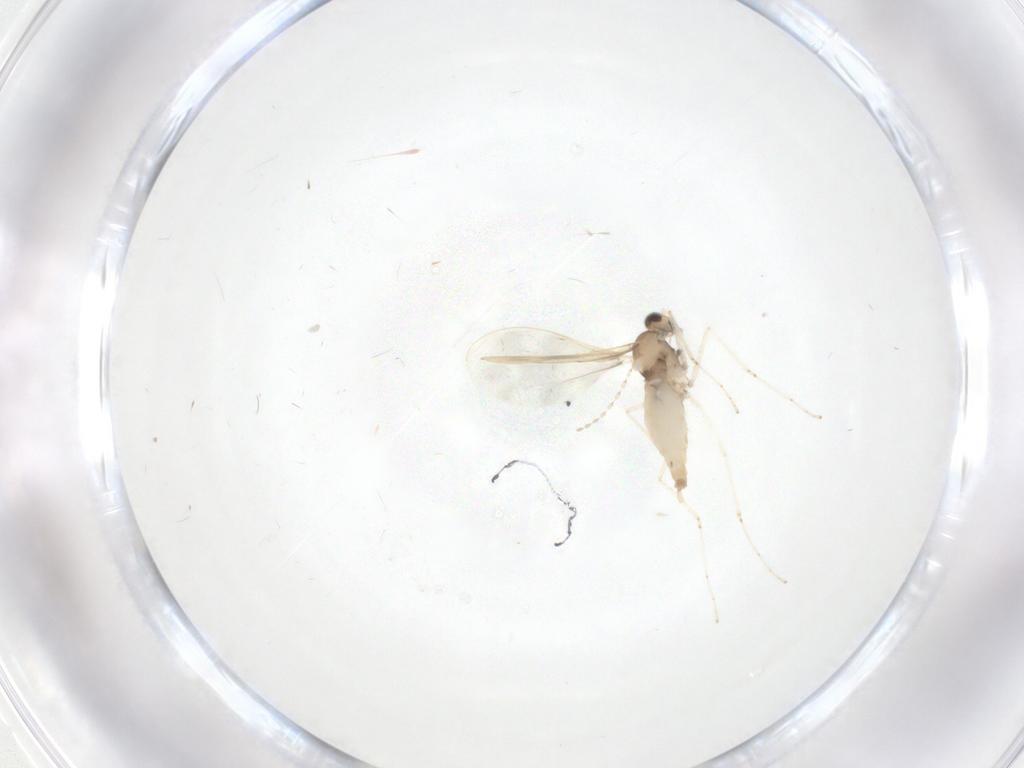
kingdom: Animalia
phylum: Arthropoda
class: Insecta
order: Diptera
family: Cecidomyiidae
